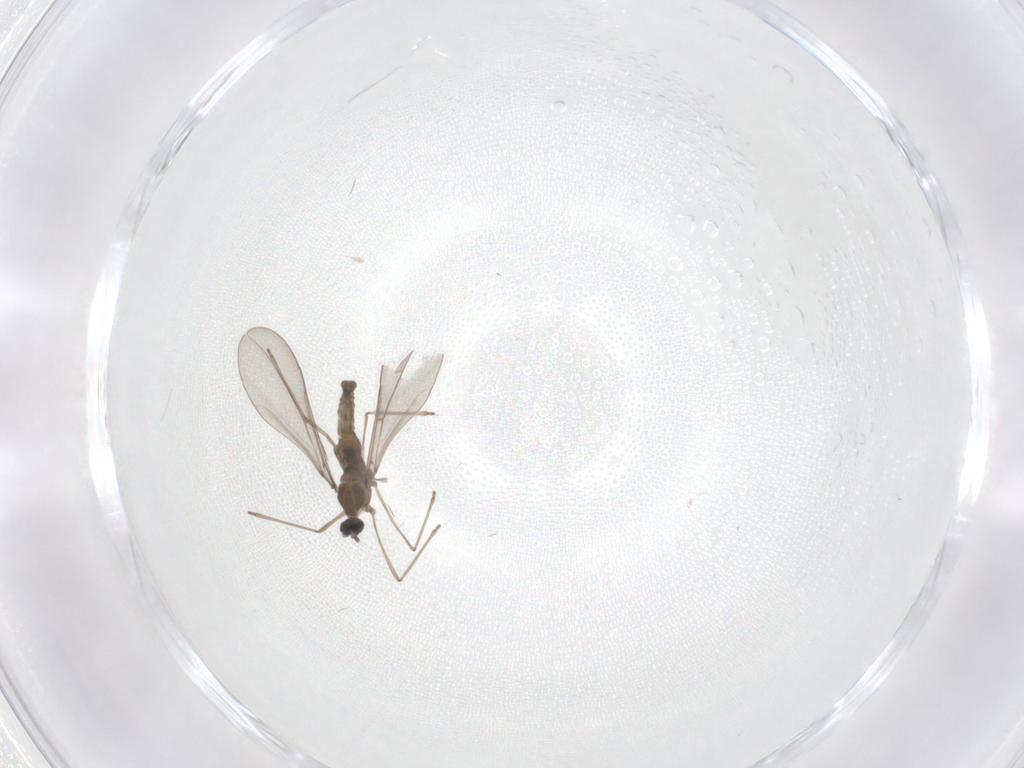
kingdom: Animalia
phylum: Arthropoda
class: Insecta
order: Diptera
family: Cecidomyiidae
